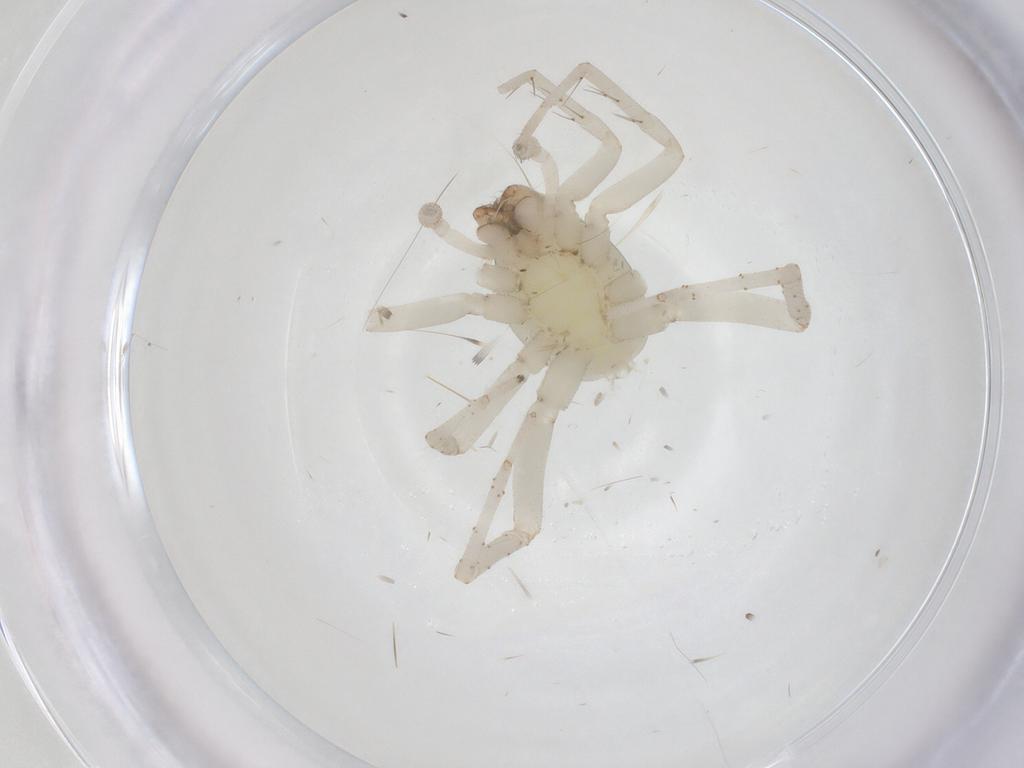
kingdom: Animalia
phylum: Arthropoda
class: Arachnida
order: Araneae
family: Clubionidae
